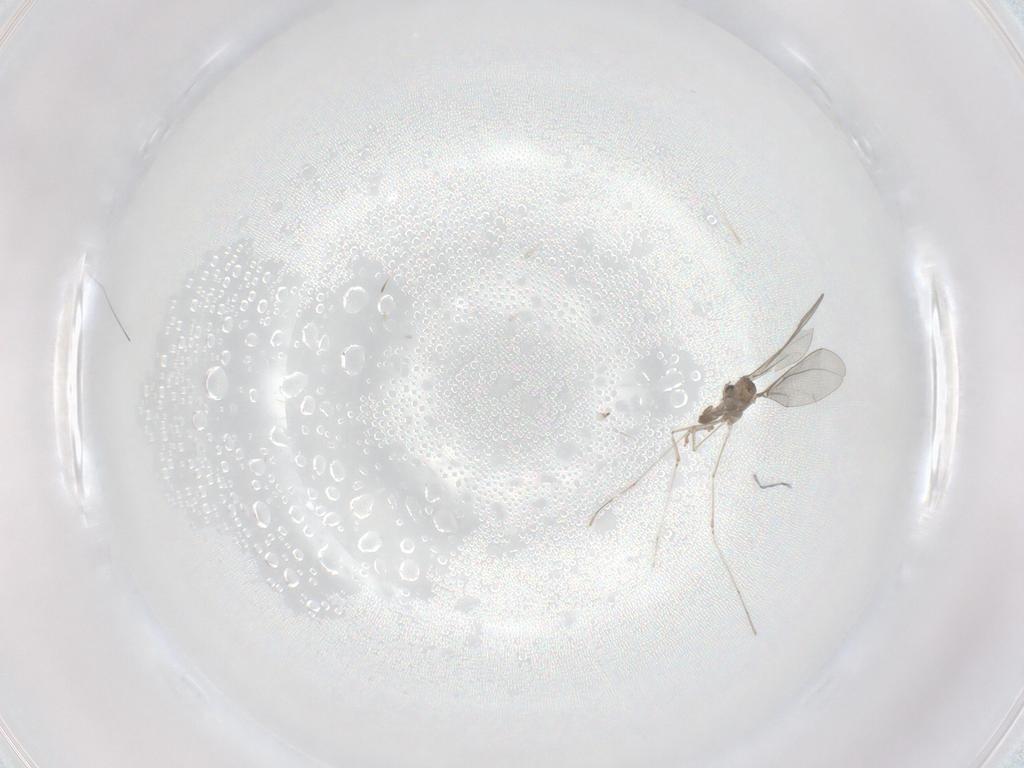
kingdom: Animalia
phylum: Arthropoda
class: Insecta
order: Diptera
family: Cecidomyiidae
